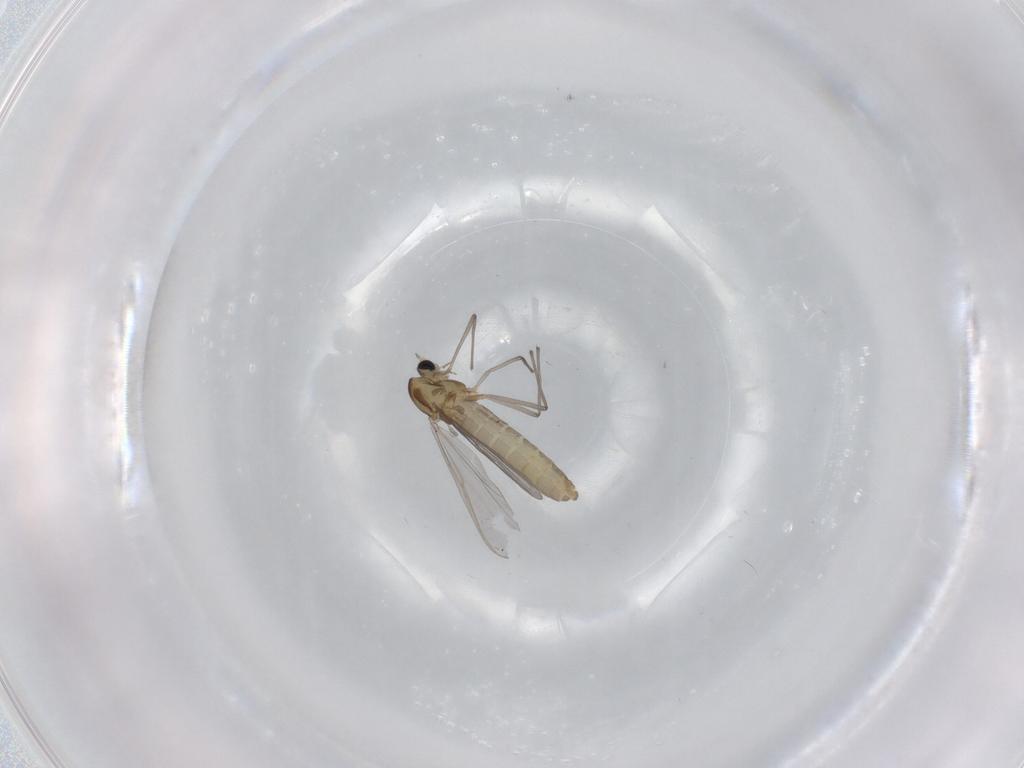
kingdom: Animalia
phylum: Arthropoda
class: Insecta
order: Diptera
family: Chironomidae
